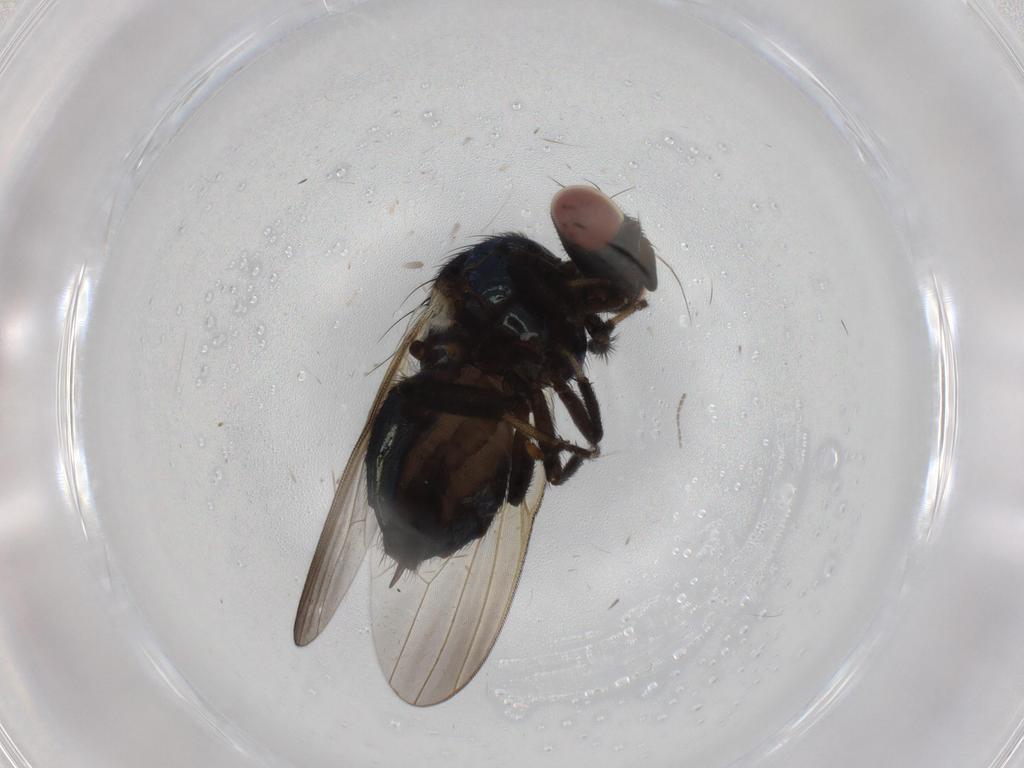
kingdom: Animalia
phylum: Arthropoda
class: Insecta
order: Diptera
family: Lonchaeidae
